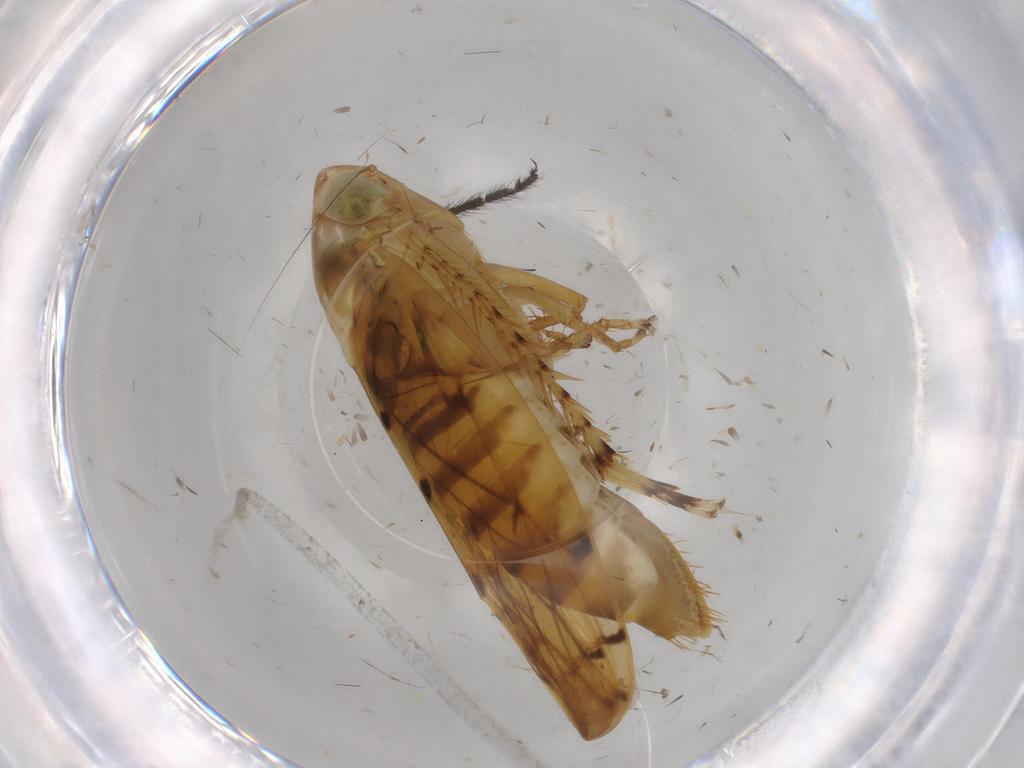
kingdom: Animalia
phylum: Arthropoda
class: Insecta
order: Hemiptera
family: Cicadellidae
